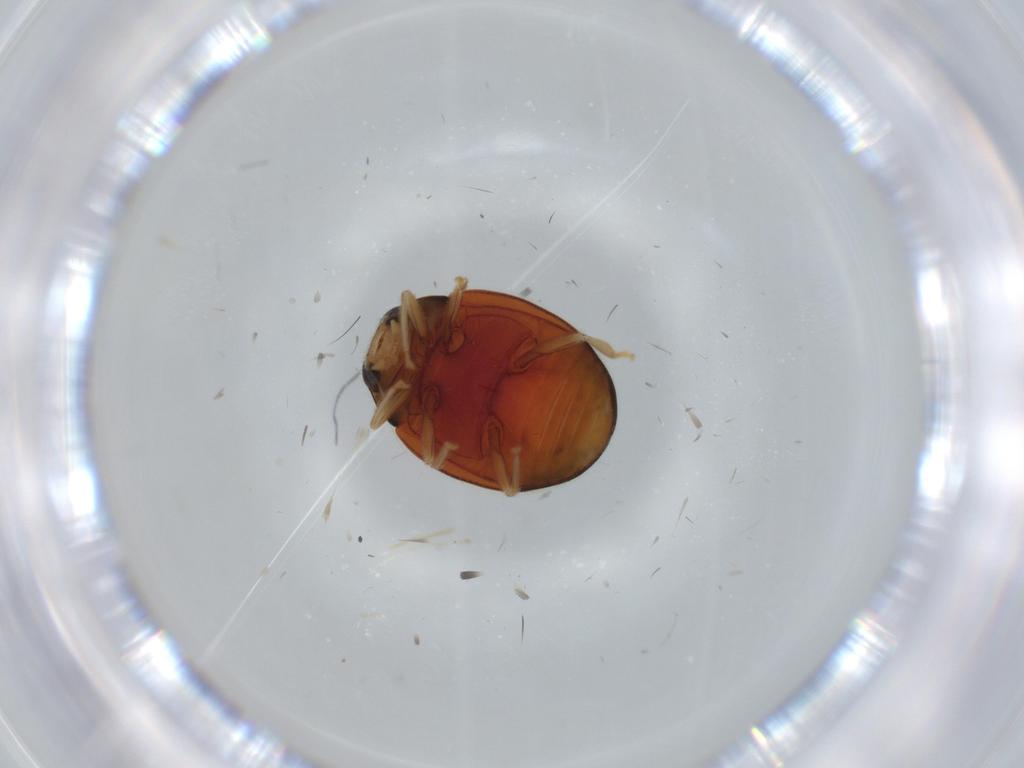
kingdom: Animalia
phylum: Arthropoda
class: Insecta
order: Coleoptera
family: Coccinellidae
